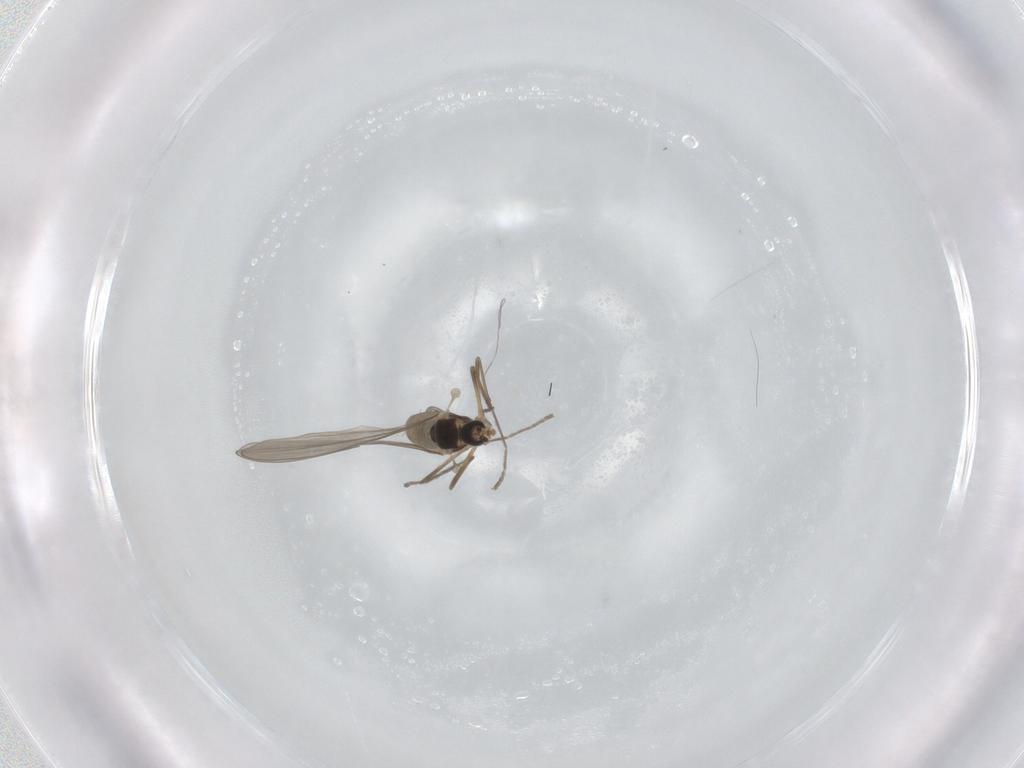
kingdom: Animalia
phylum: Arthropoda
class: Insecta
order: Diptera
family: Cecidomyiidae
